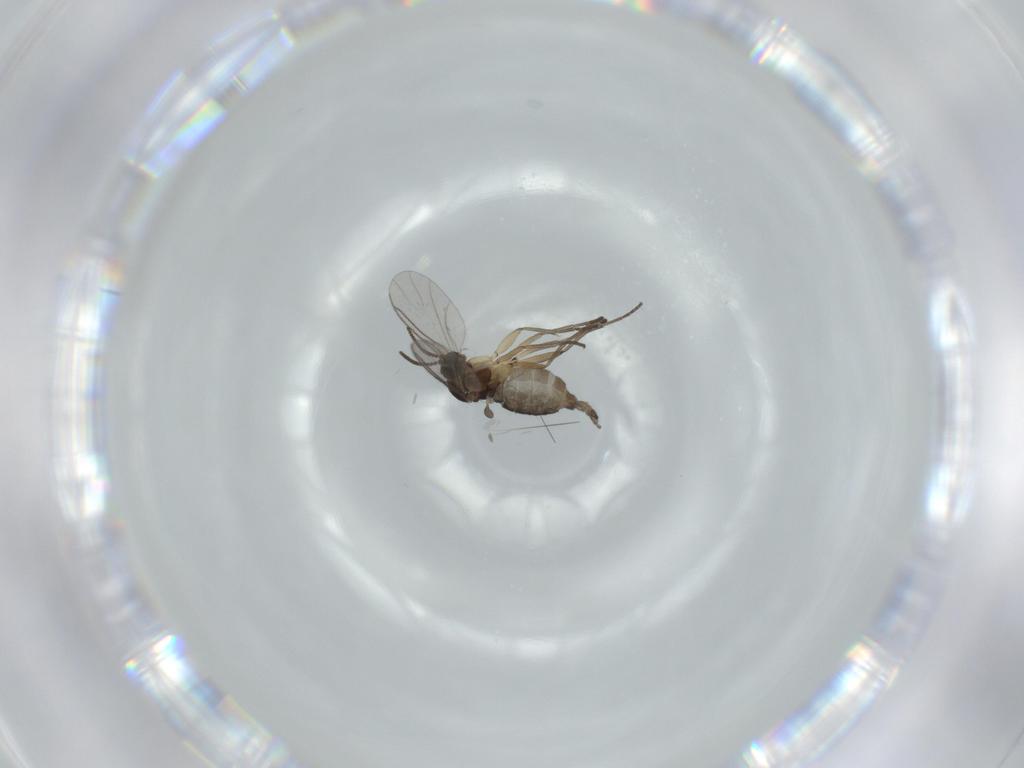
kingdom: Animalia
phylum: Arthropoda
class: Insecta
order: Diptera
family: Sciaridae
